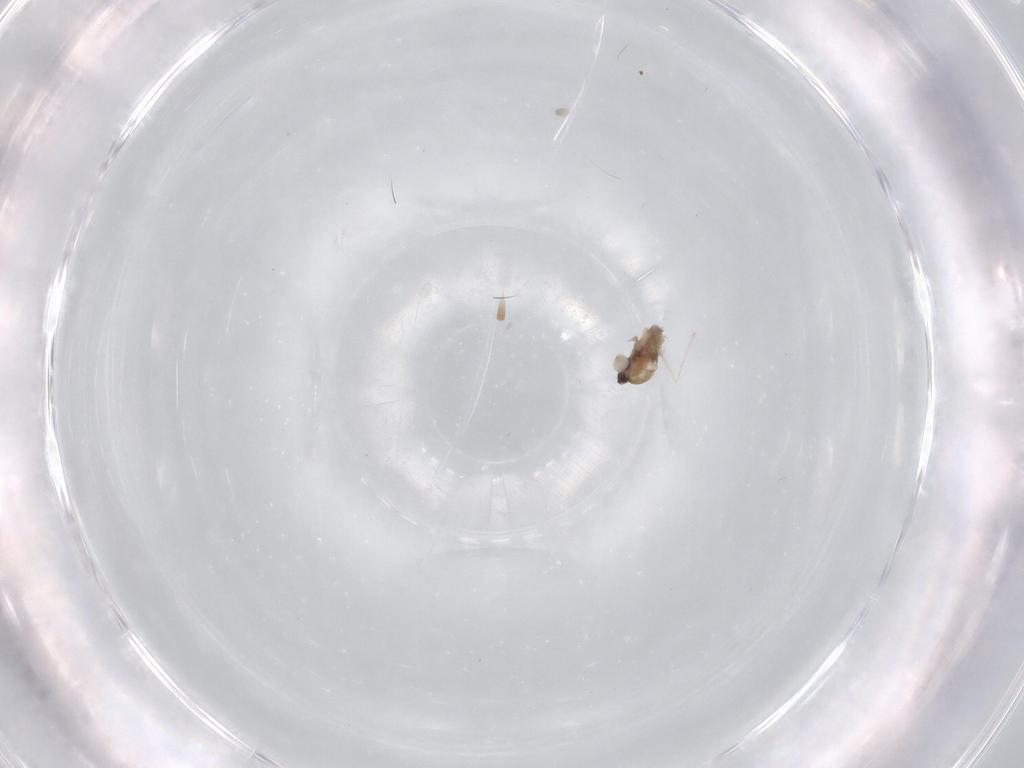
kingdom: Animalia
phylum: Arthropoda
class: Insecta
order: Diptera
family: Cecidomyiidae
